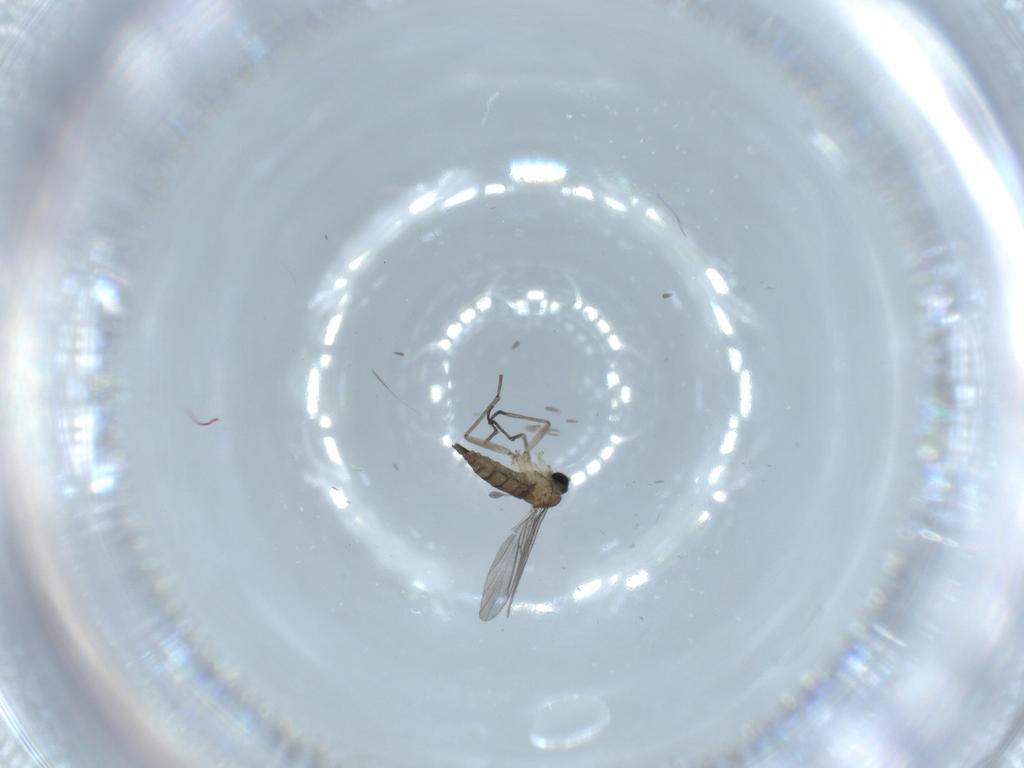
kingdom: Animalia
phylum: Arthropoda
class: Insecta
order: Diptera
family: Sciaridae
